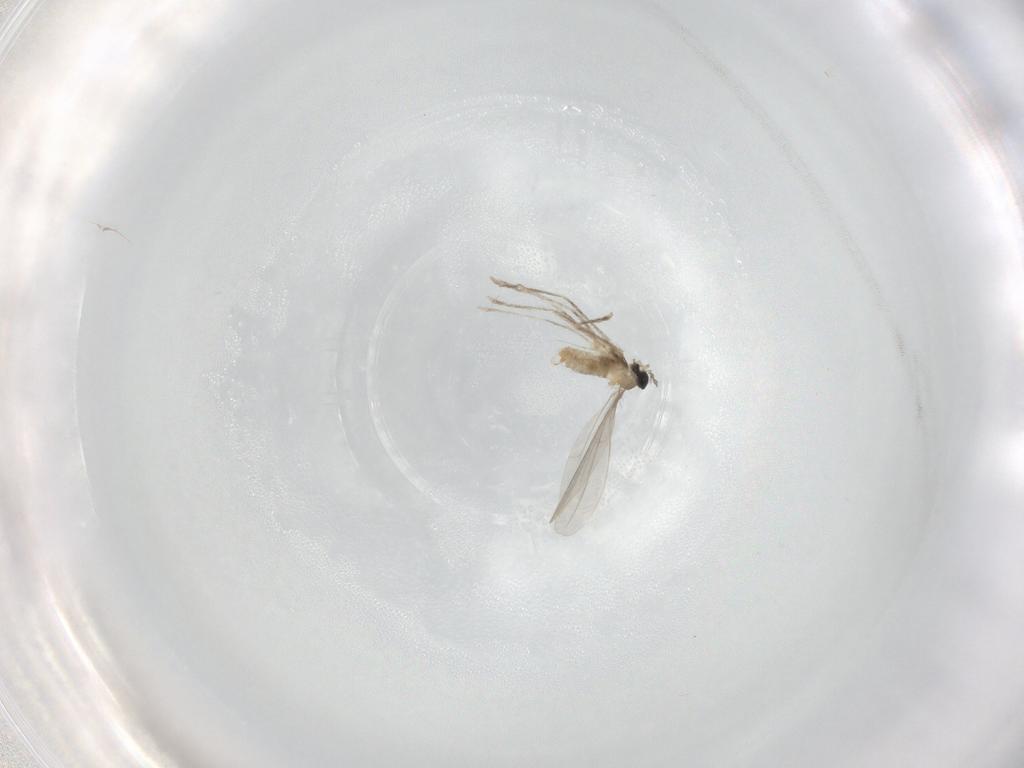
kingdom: Animalia
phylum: Arthropoda
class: Insecta
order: Diptera
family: Cecidomyiidae
